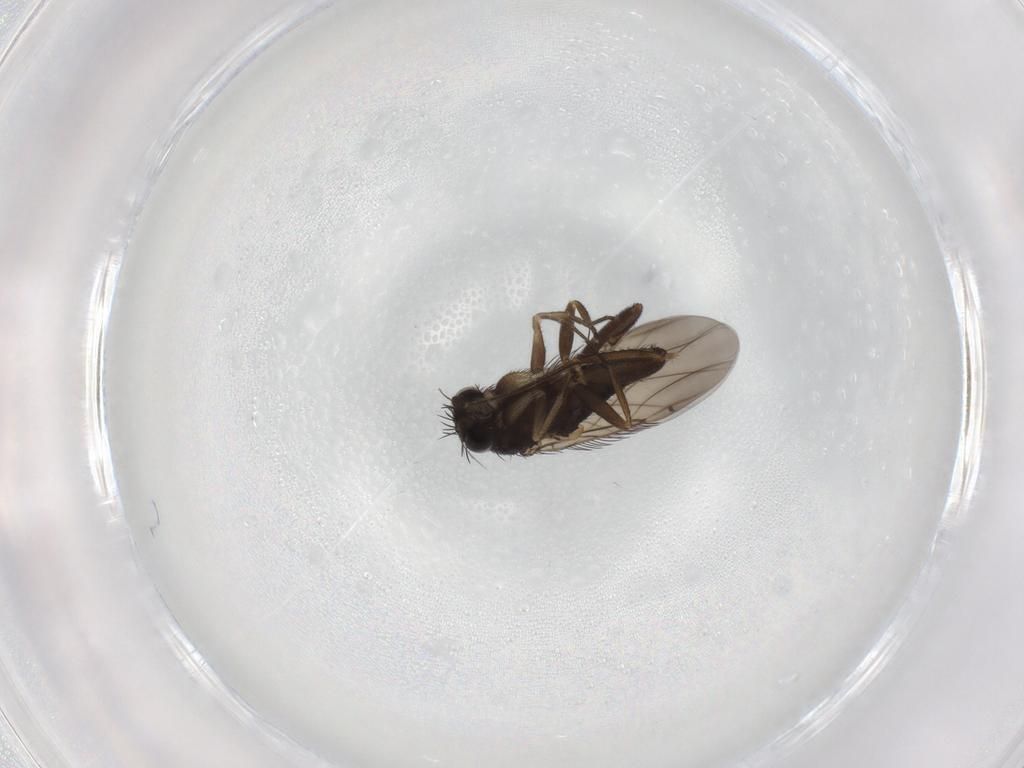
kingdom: Animalia
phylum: Arthropoda
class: Insecta
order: Diptera
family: Phoridae
